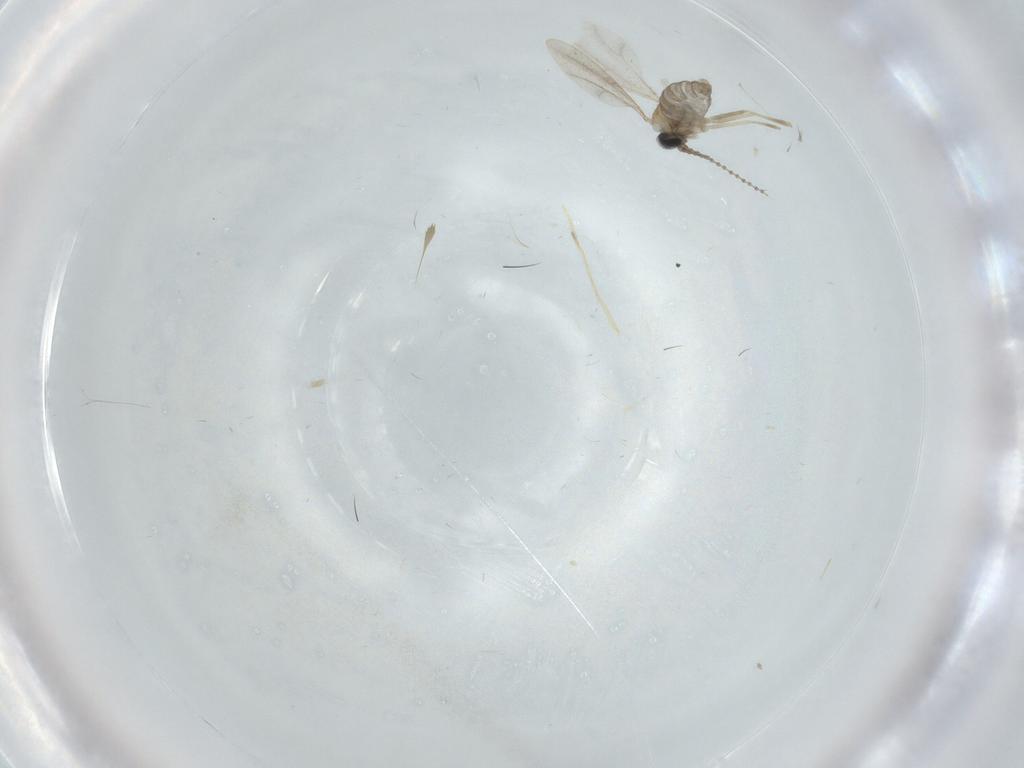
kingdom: Animalia
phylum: Arthropoda
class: Insecta
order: Diptera
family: Cecidomyiidae
